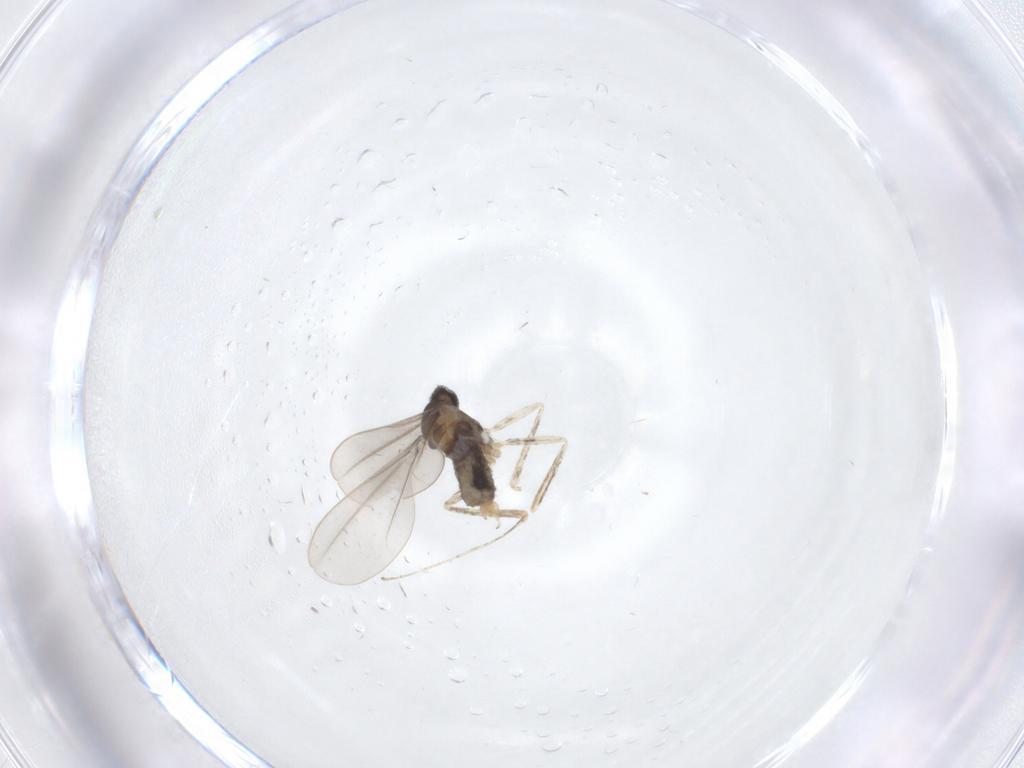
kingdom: Animalia
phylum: Arthropoda
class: Insecta
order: Diptera
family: Cecidomyiidae
